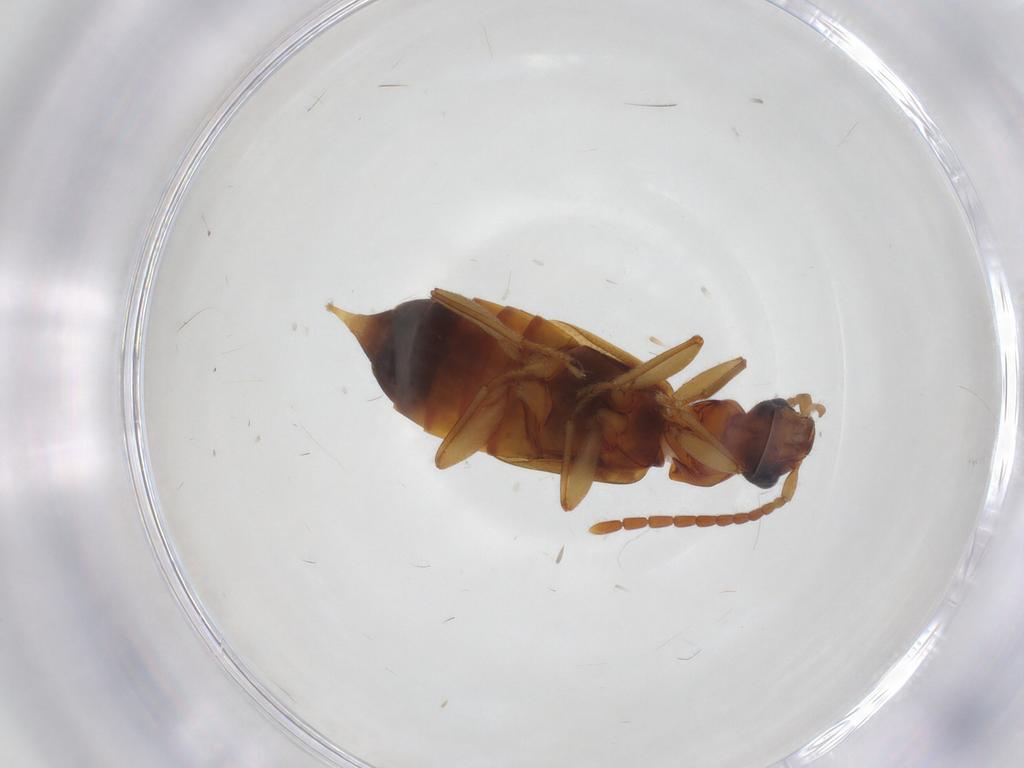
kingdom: Animalia
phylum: Arthropoda
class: Insecta
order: Coleoptera
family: Staphylinidae
